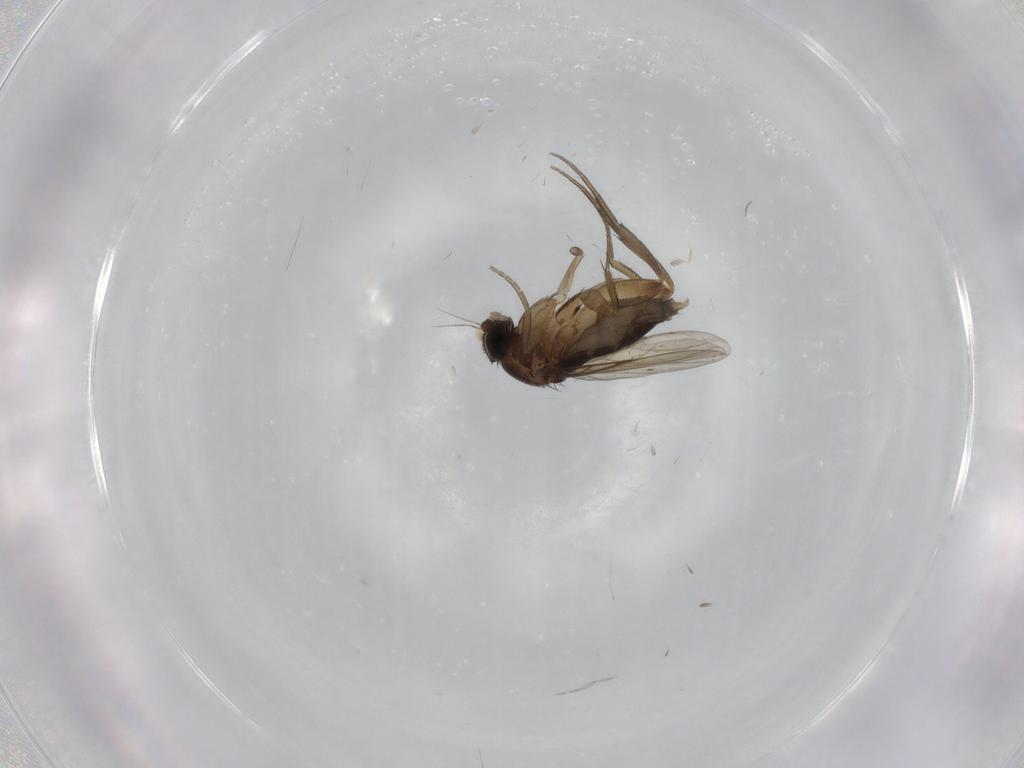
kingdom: Animalia
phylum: Arthropoda
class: Insecta
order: Diptera
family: Phoridae
